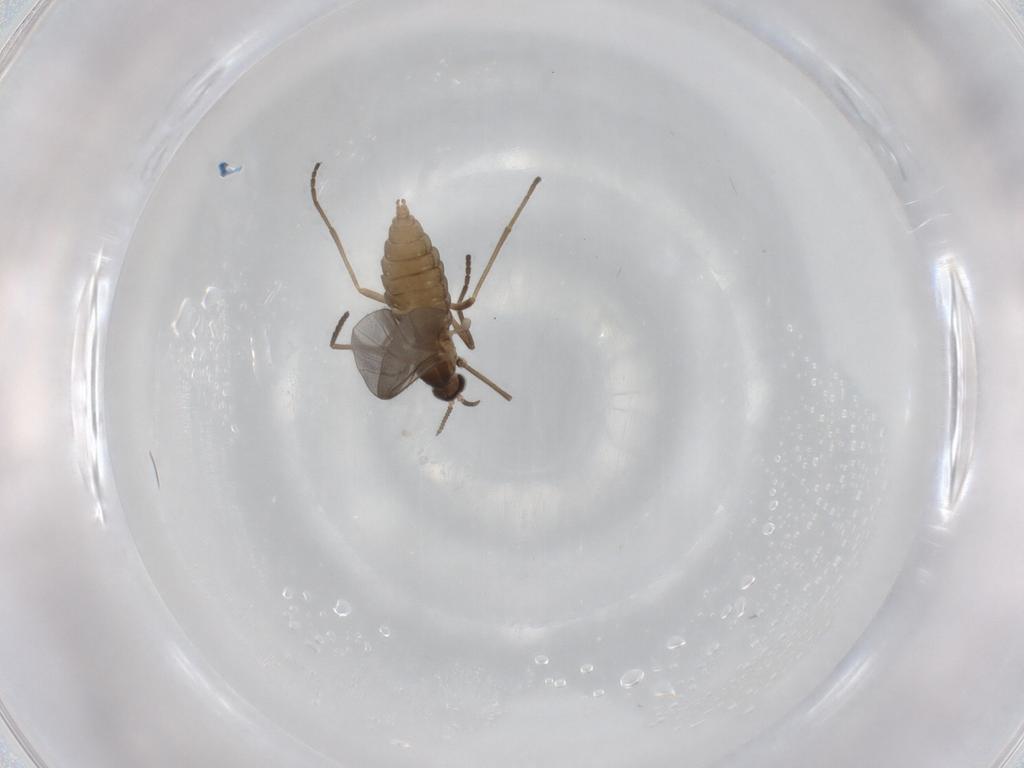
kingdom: Animalia
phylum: Arthropoda
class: Insecta
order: Diptera
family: Cecidomyiidae
